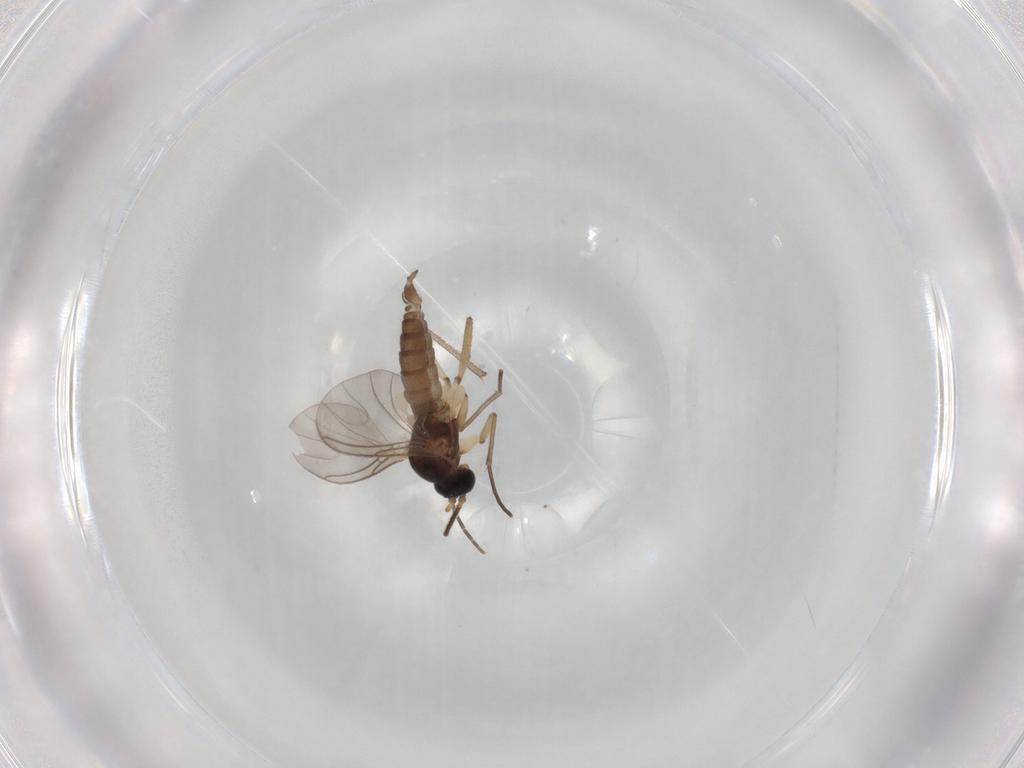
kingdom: Animalia
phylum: Arthropoda
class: Insecta
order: Diptera
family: Sciaridae
